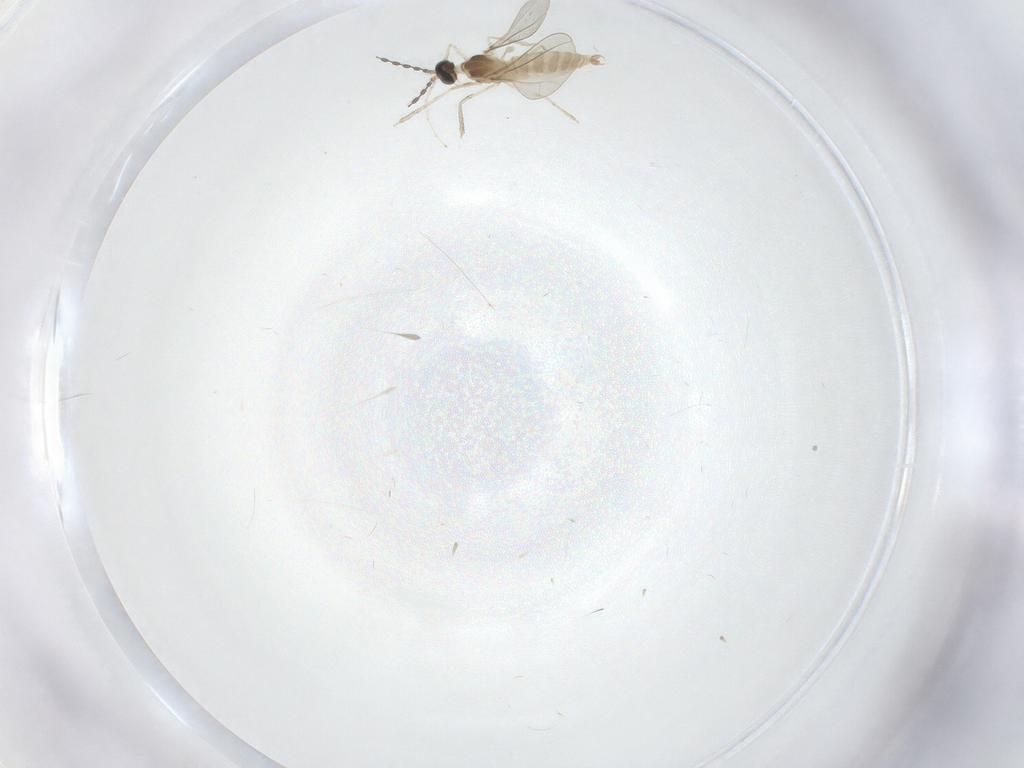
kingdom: Animalia
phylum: Arthropoda
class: Insecta
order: Diptera
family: Cecidomyiidae
